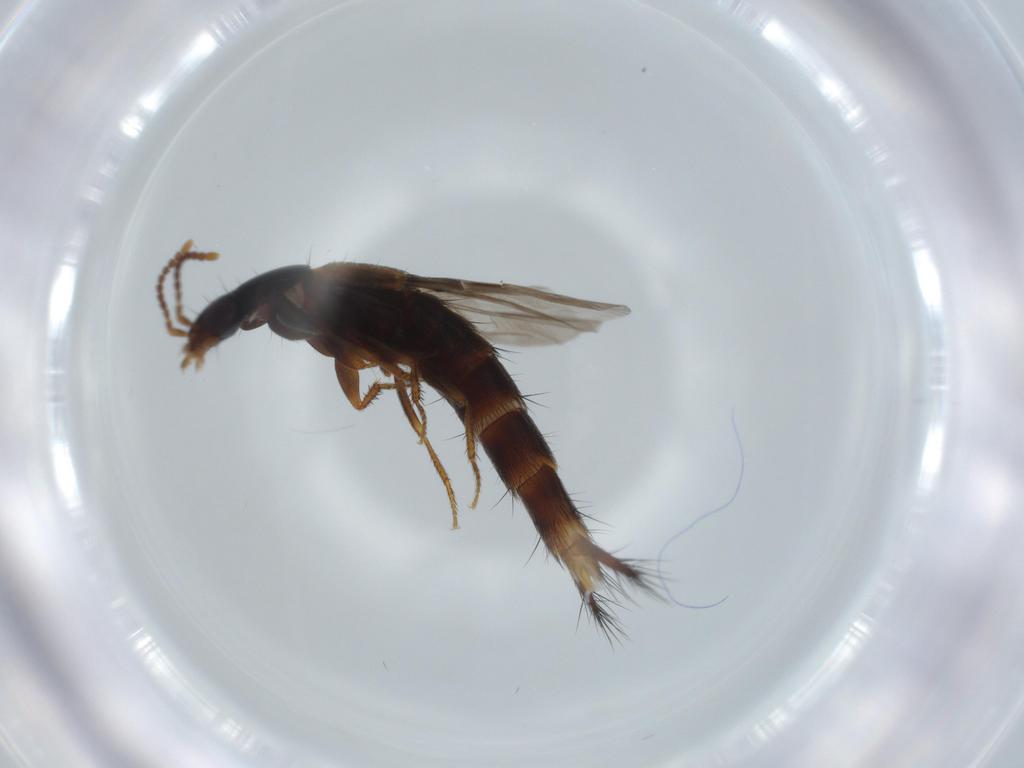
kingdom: Animalia
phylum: Arthropoda
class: Insecta
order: Coleoptera
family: Staphylinidae
